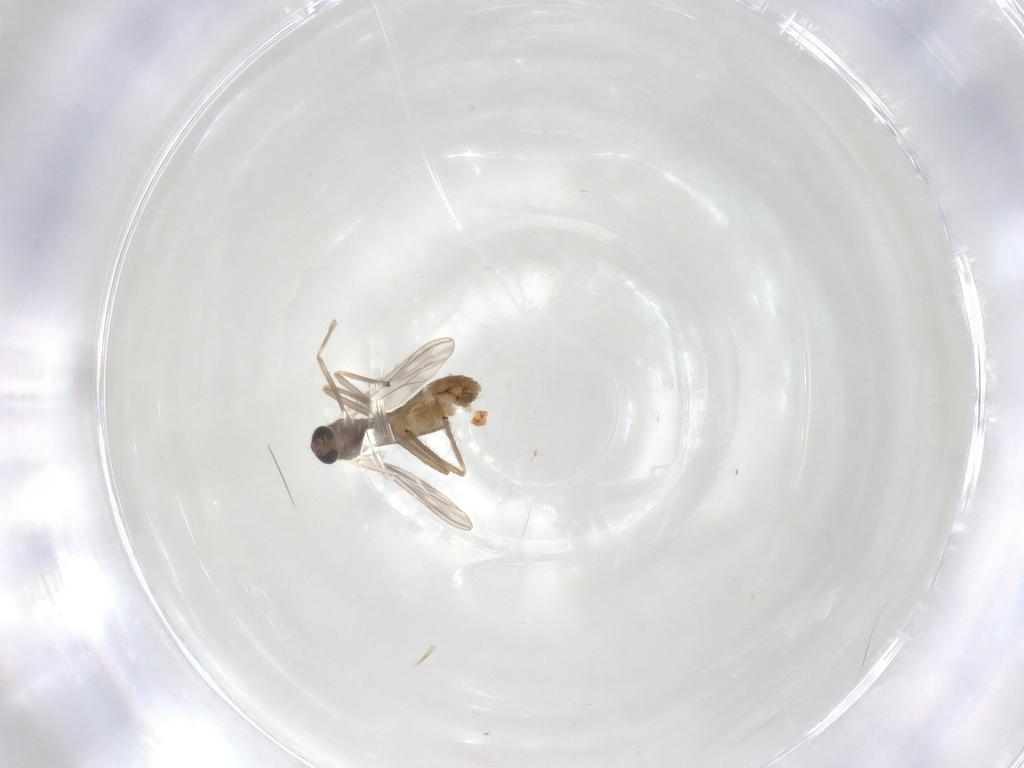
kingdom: Animalia
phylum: Arthropoda
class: Insecta
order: Diptera
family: Chironomidae
